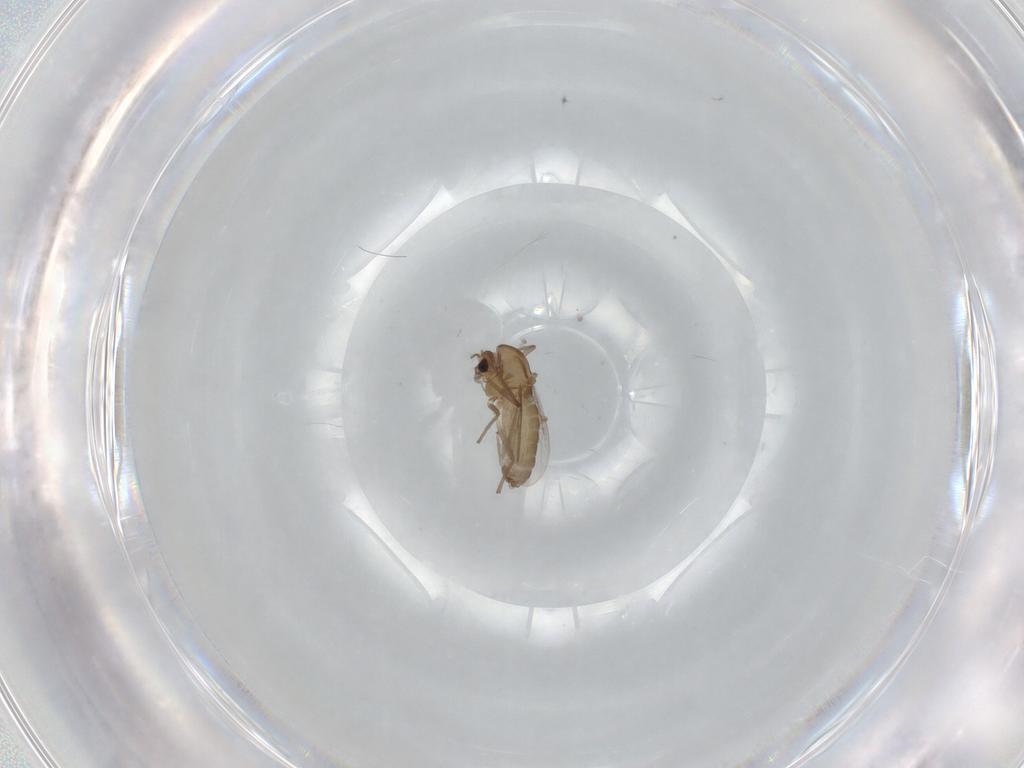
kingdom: Animalia
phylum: Arthropoda
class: Insecta
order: Diptera
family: Chironomidae
